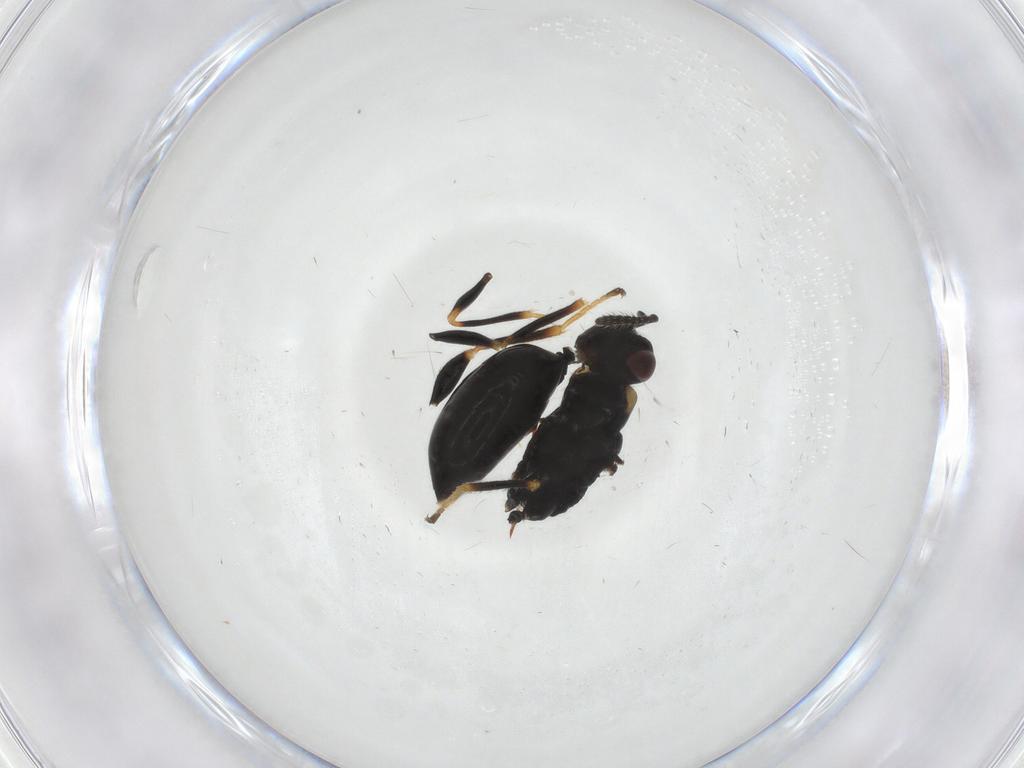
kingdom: Animalia
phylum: Arthropoda
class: Insecta
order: Hymenoptera
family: Eurytomidae
